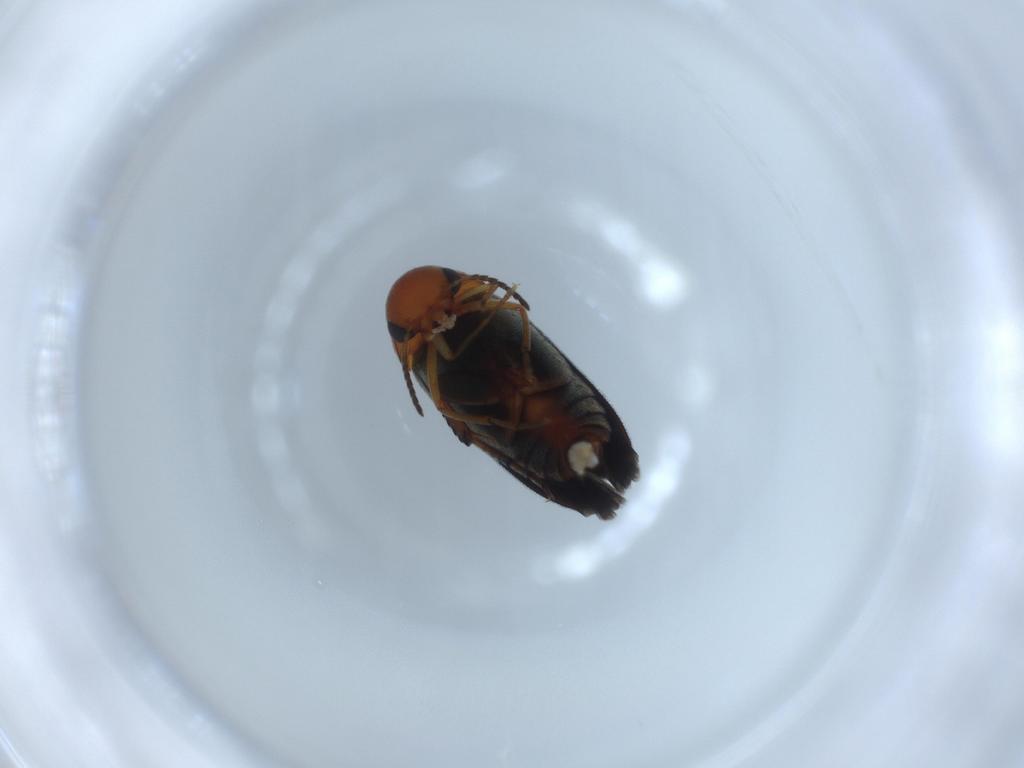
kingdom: Animalia
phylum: Arthropoda
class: Insecta
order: Coleoptera
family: Mordellidae
